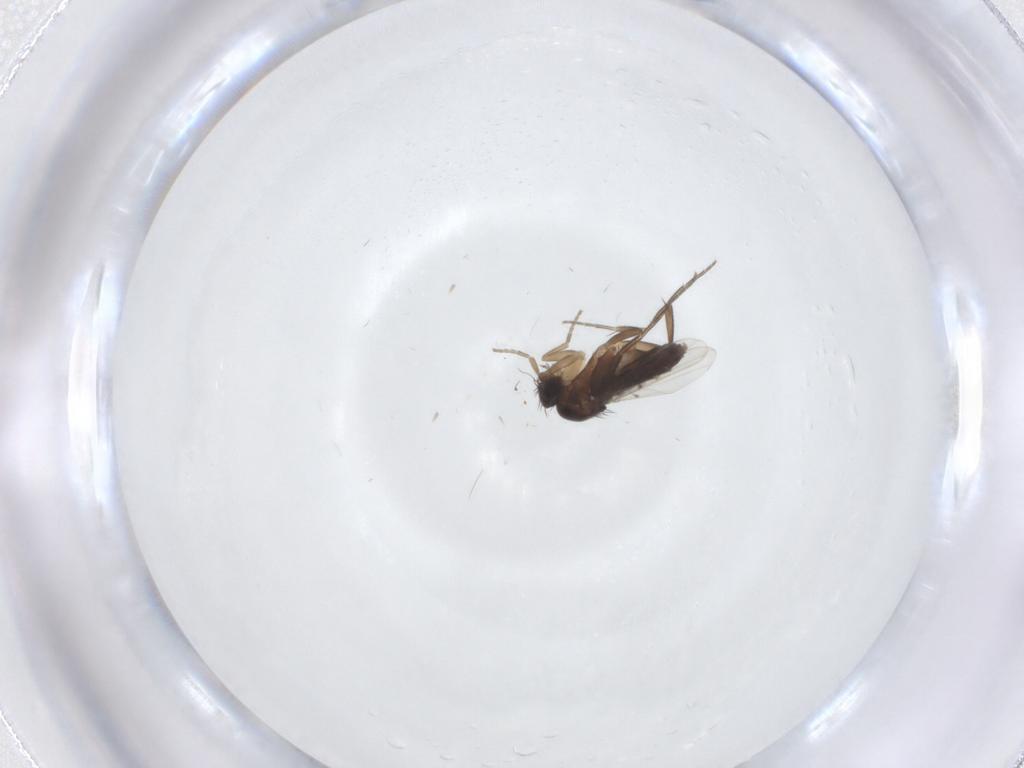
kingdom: Animalia
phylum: Arthropoda
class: Insecta
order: Diptera
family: Phoridae
